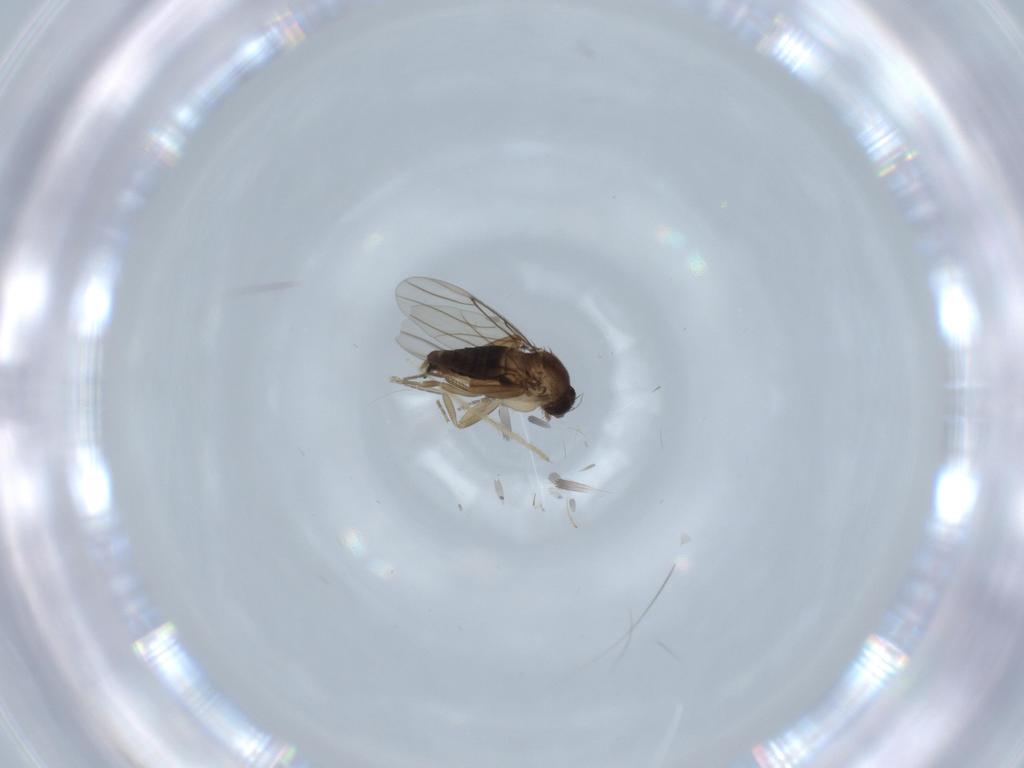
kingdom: Animalia
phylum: Arthropoda
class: Insecta
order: Diptera
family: Phoridae
